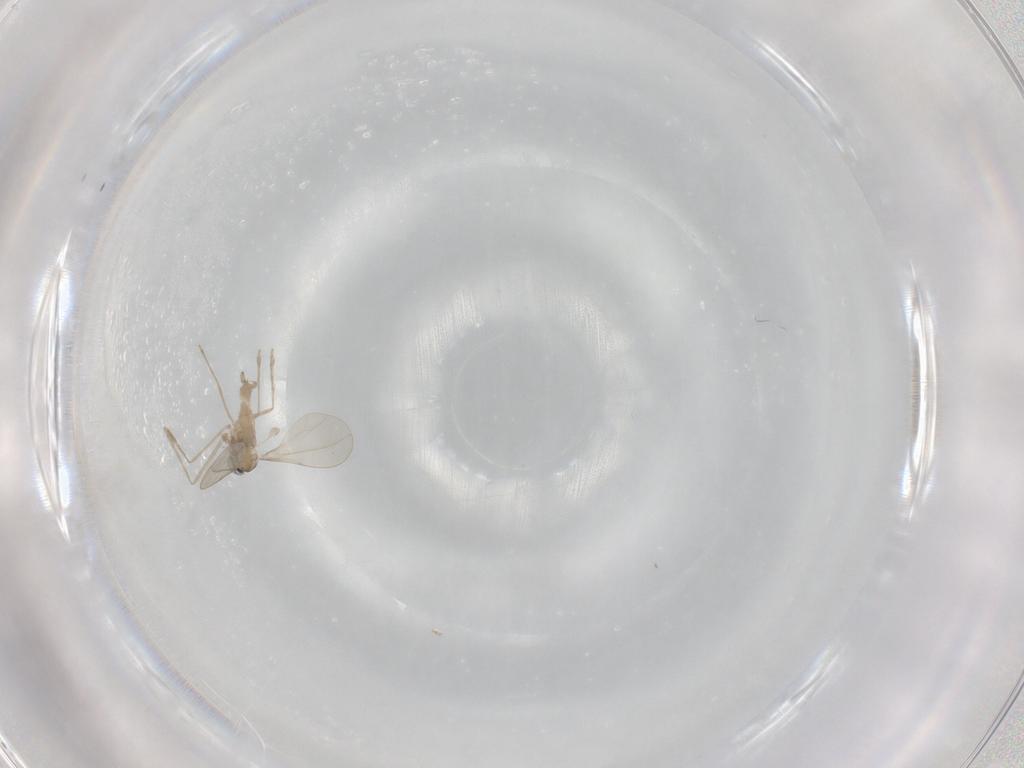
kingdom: Animalia
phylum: Arthropoda
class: Insecta
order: Diptera
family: Cecidomyiidae
